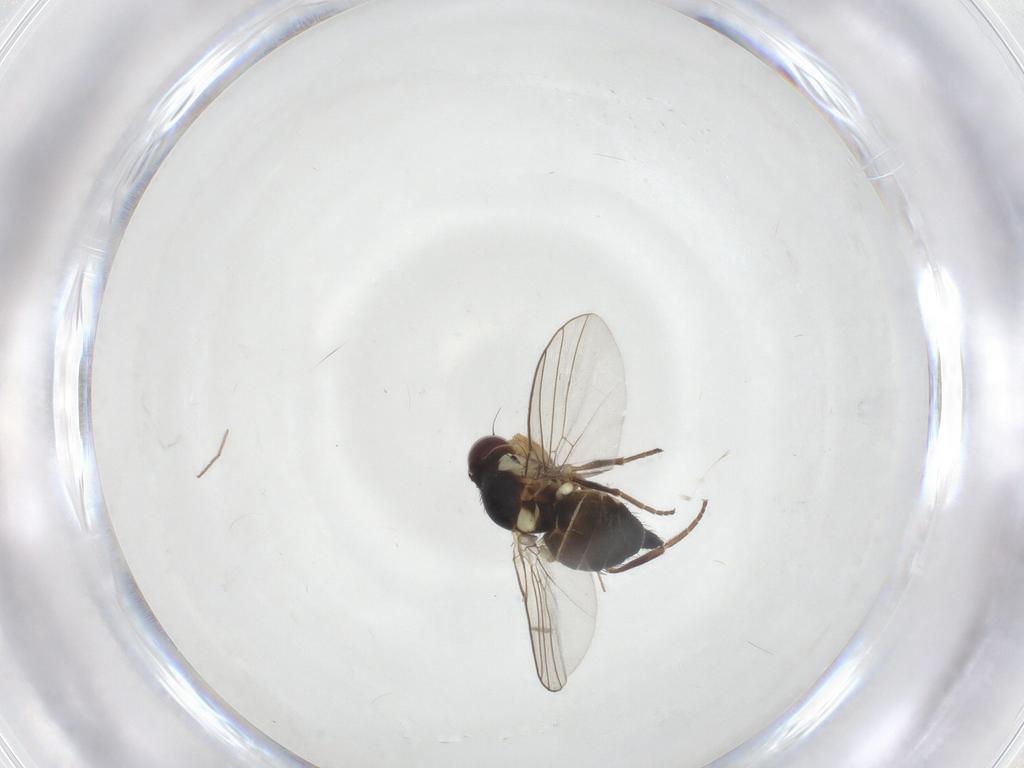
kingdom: Animalia
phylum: Arthropoda
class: Insecta
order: Diptera
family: Agromyzidae
